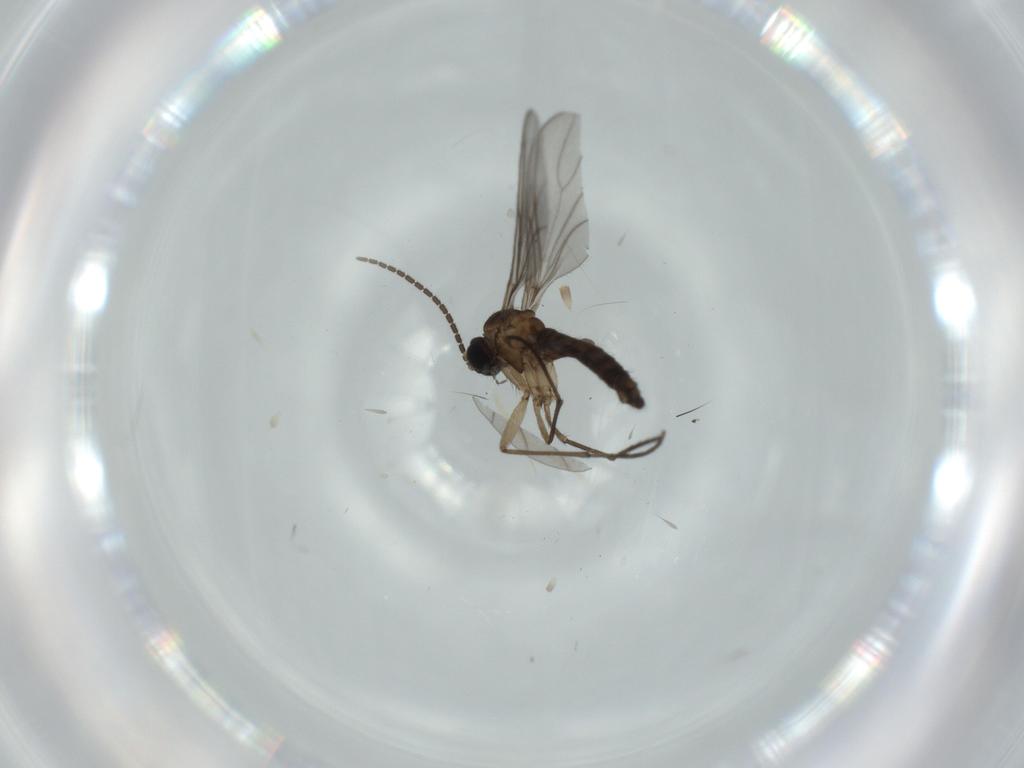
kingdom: Animalia
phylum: Arthropoda
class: Insecta
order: Diptera
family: Sciaridae
